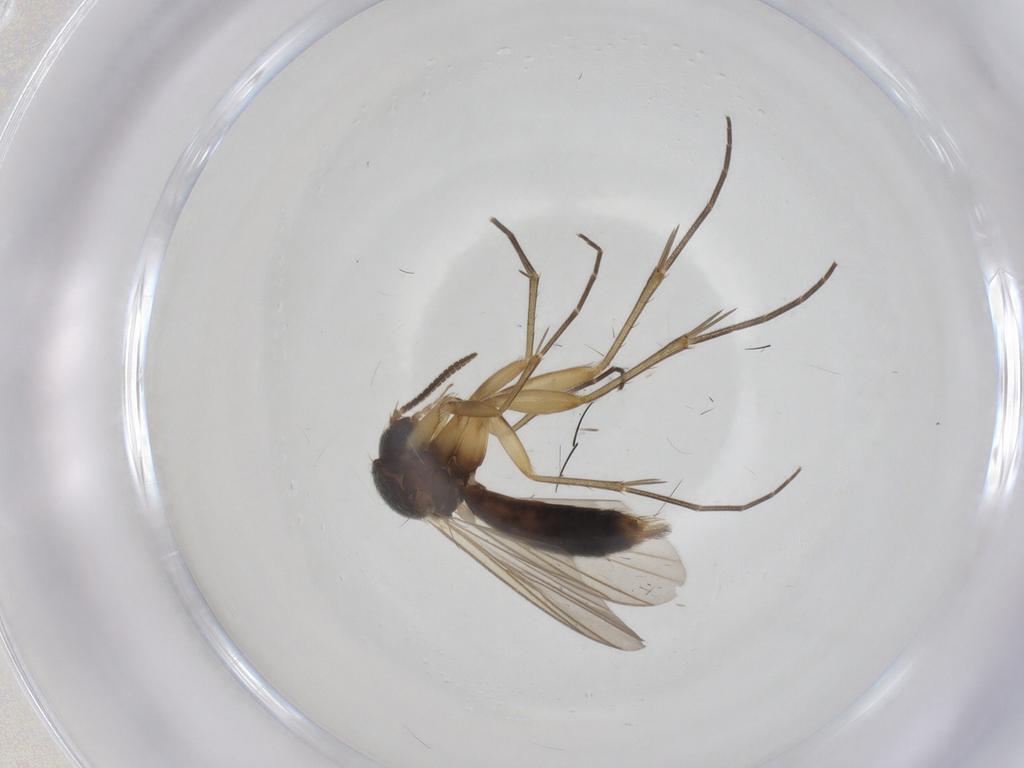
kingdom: Animalia
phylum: Arthropoda
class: Insecta
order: Diptera
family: Mycetophilidae
